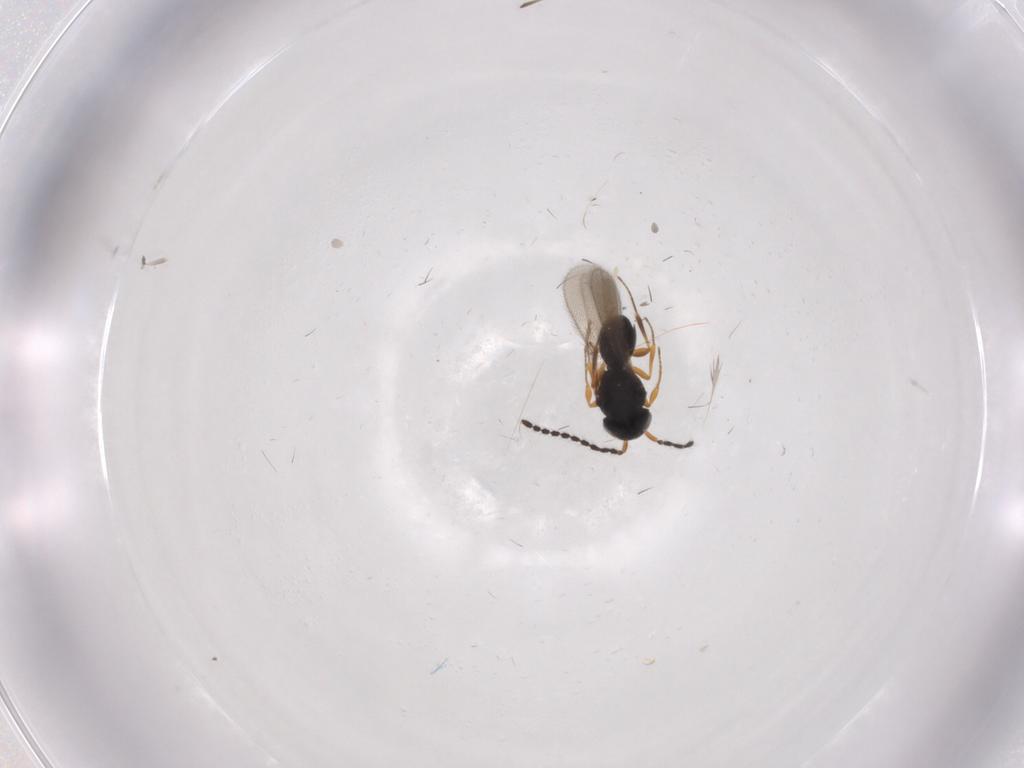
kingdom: Animalia
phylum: Arthropoda
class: Insecta
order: Hymenoptera
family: Scelionidae
